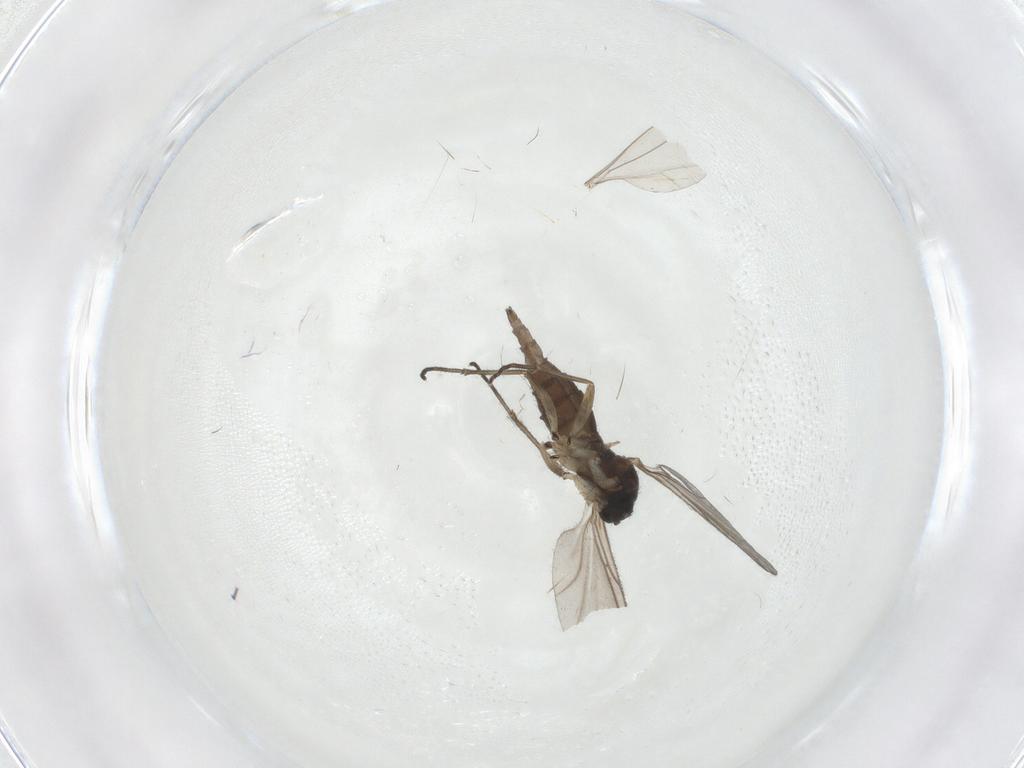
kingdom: Animalia
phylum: Arthropoda
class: Insecta
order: Diptera
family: Sciaridae
